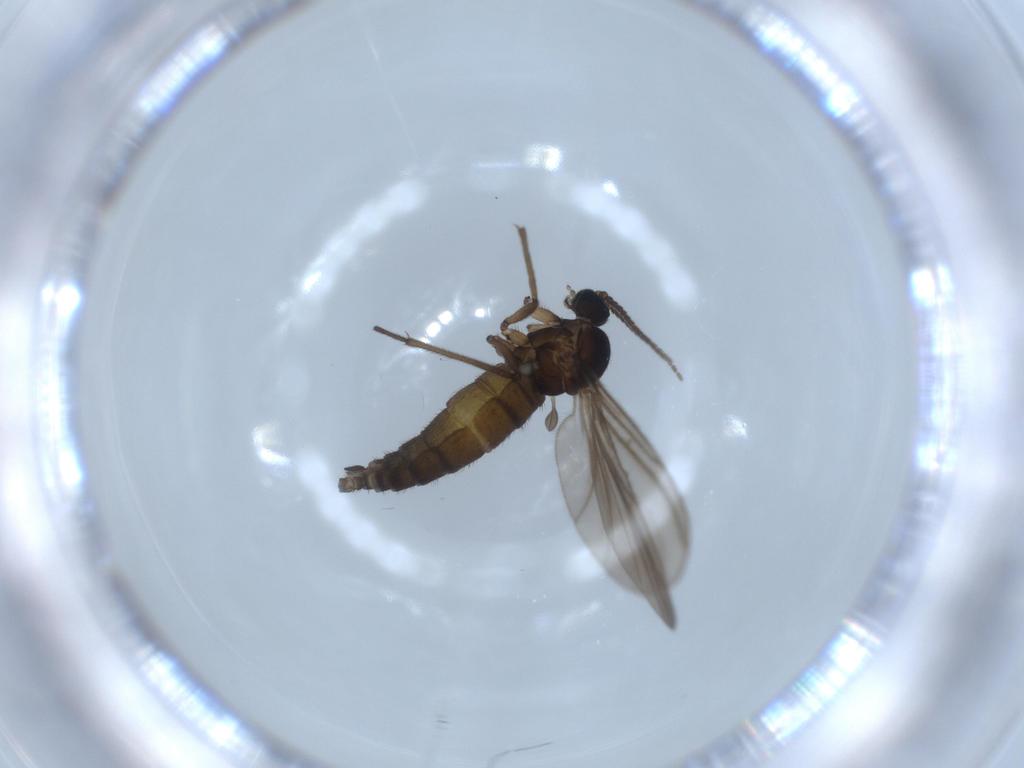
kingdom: Animalia
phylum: Arthropoda
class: Insecta
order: Diptera
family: Sciaridae
